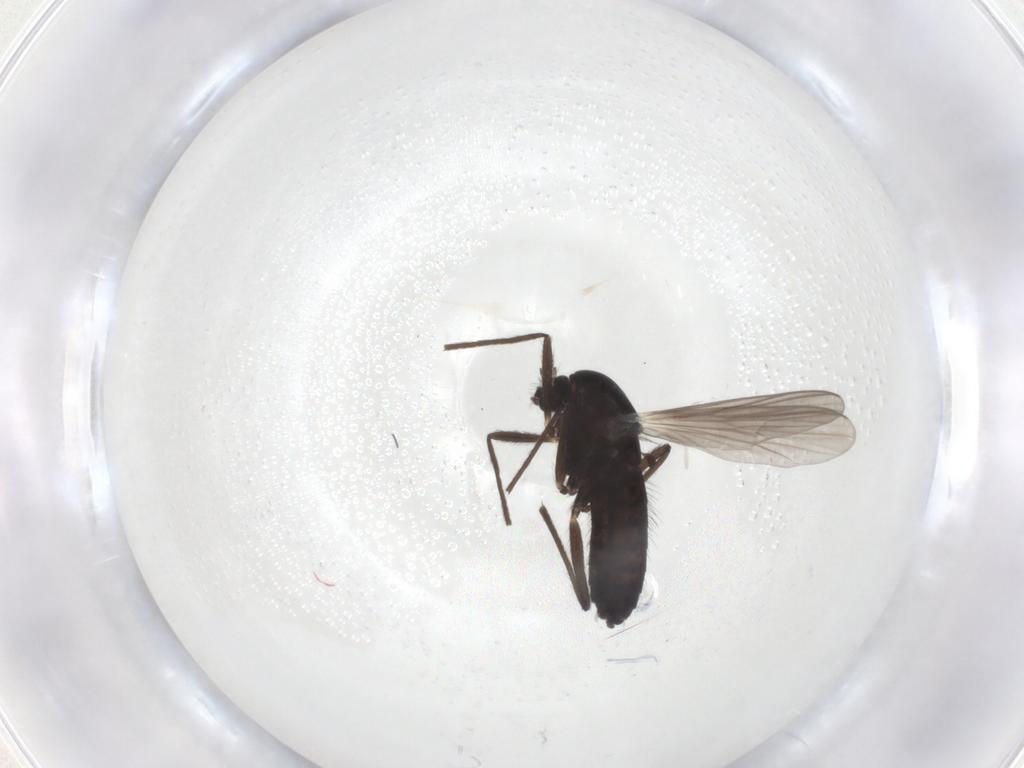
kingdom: Animalia
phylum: Arthropoda
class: Insecta
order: Diptera
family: Chironomidae
